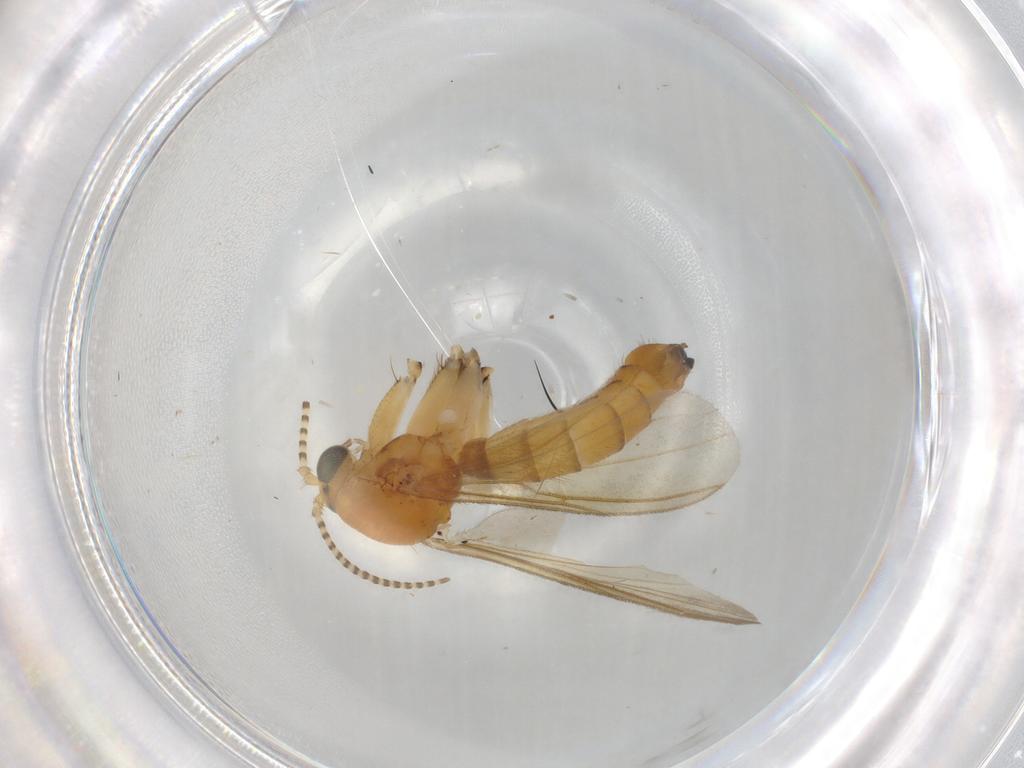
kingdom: Animalia
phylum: Arthropoda
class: Insecta
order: Diptera
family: Mycetophilidae
